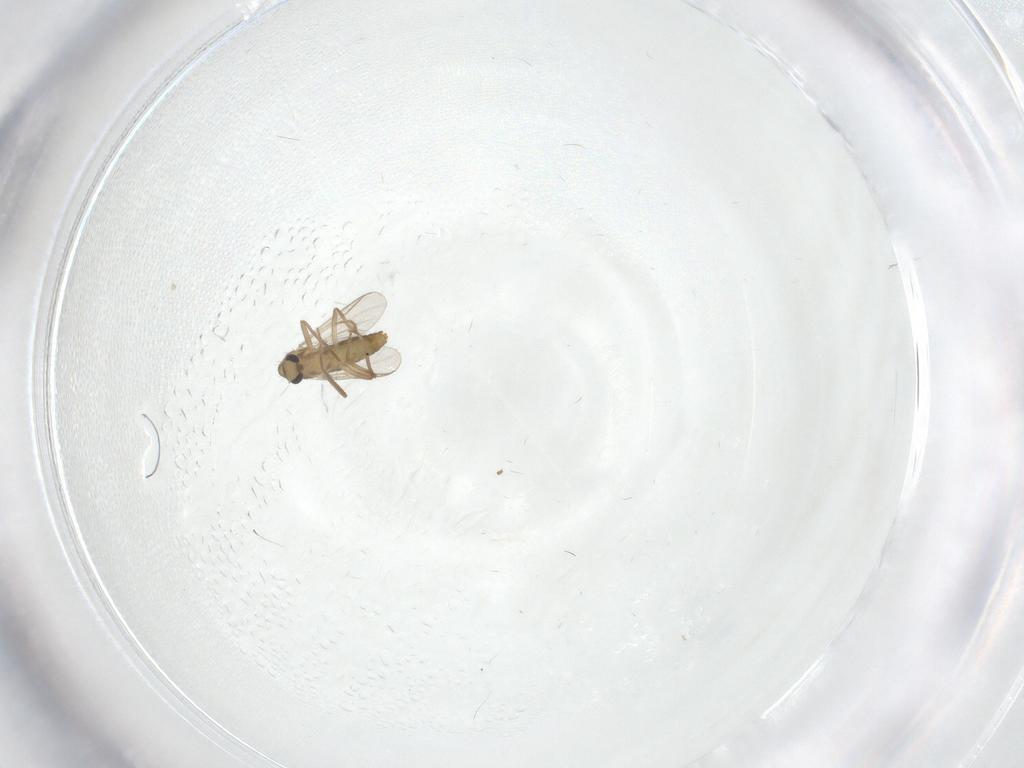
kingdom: Animalia
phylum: Arthropoda
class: Insecta
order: Diptera
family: Chironomidae
